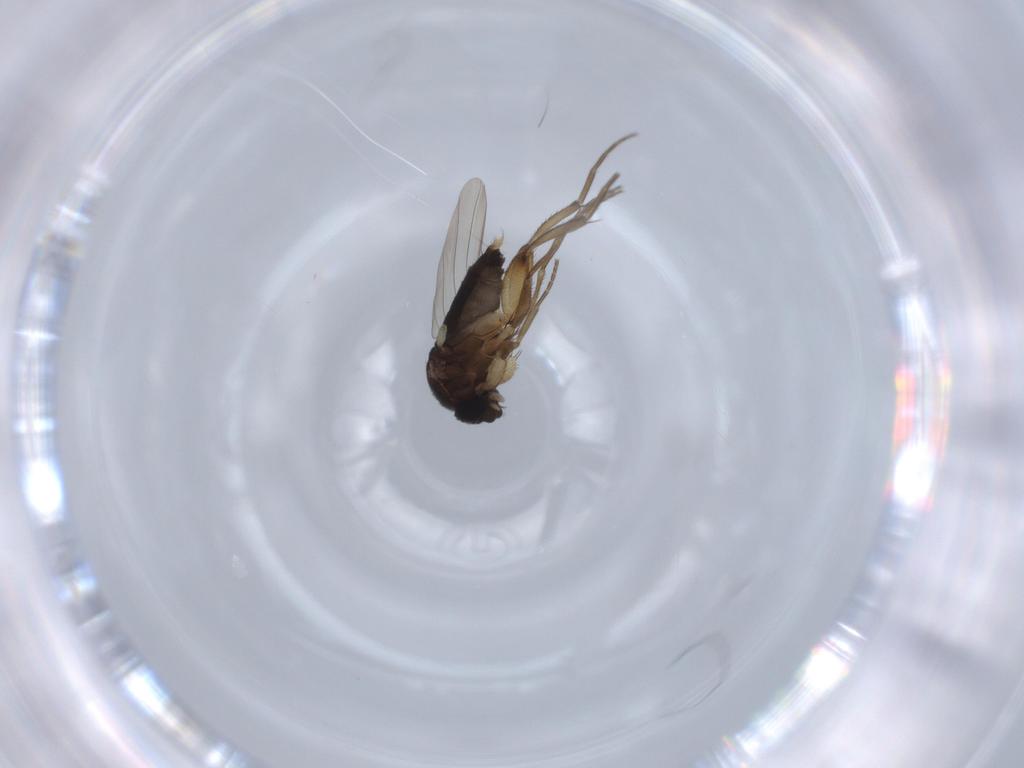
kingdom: Animalia
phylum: Arthropoda
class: Insecta
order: Diptera
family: Phoridae
